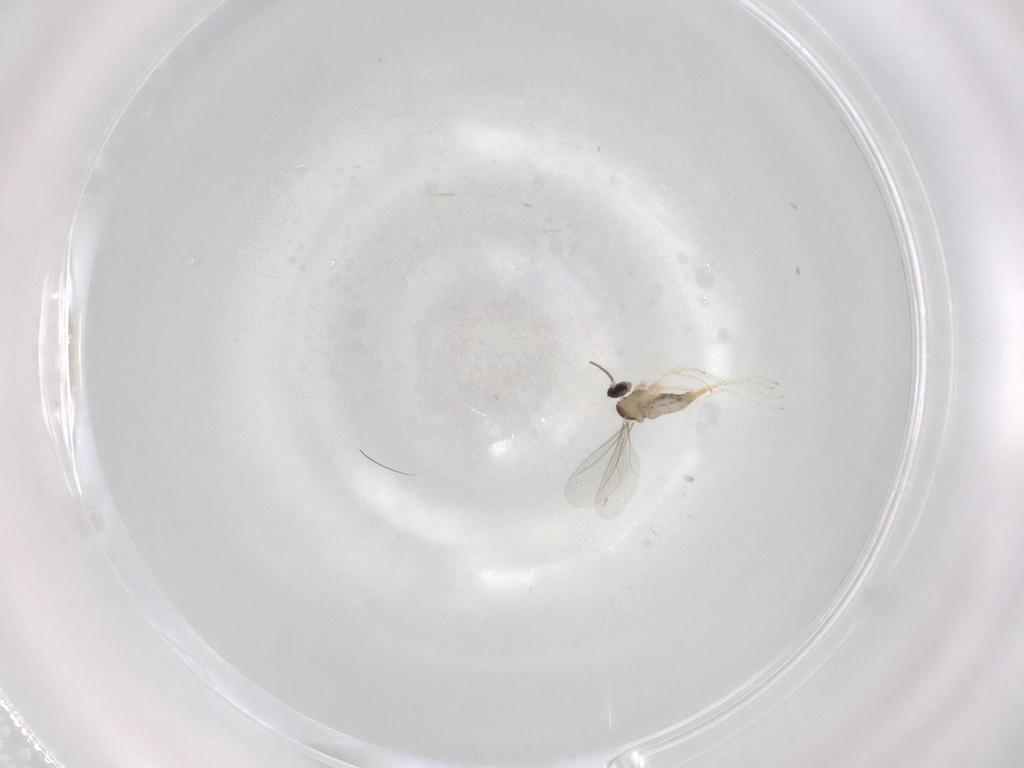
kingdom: Animalia
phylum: Arthropoda
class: Insecta
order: Diptera
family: Cecidomyiidae
